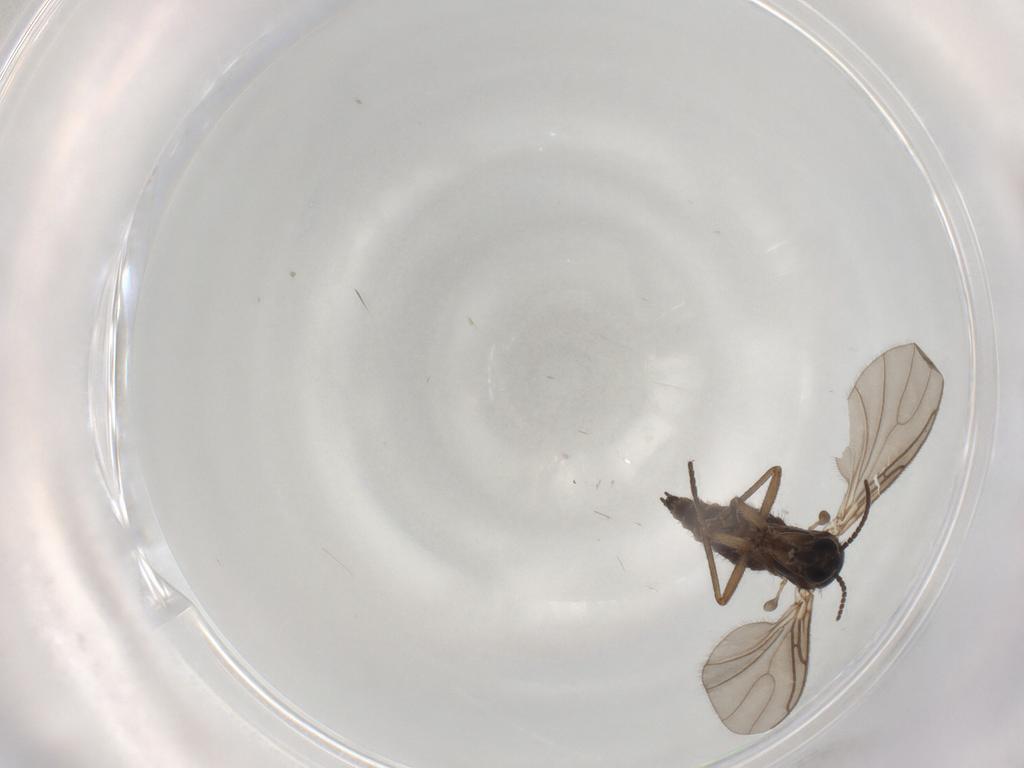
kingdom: Animalia
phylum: Arthropoda
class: Insecta
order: Diptera
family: Sciaridae
